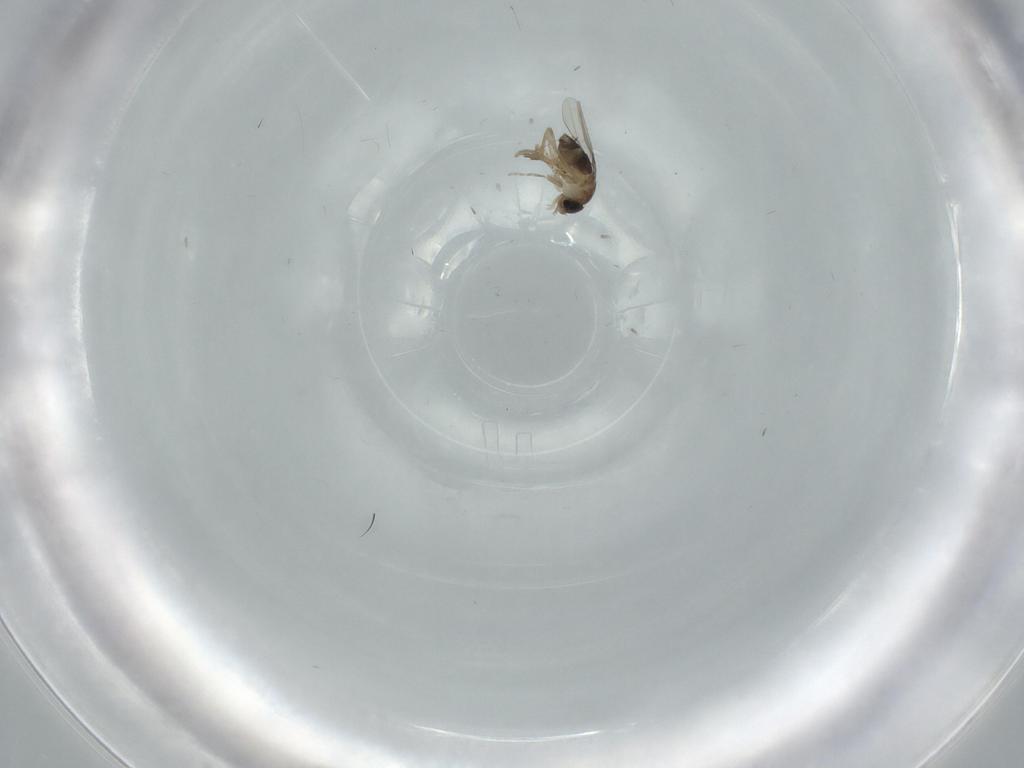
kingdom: Animalia
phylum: Arthropoda
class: Insecta
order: Diptera
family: Phoridae
